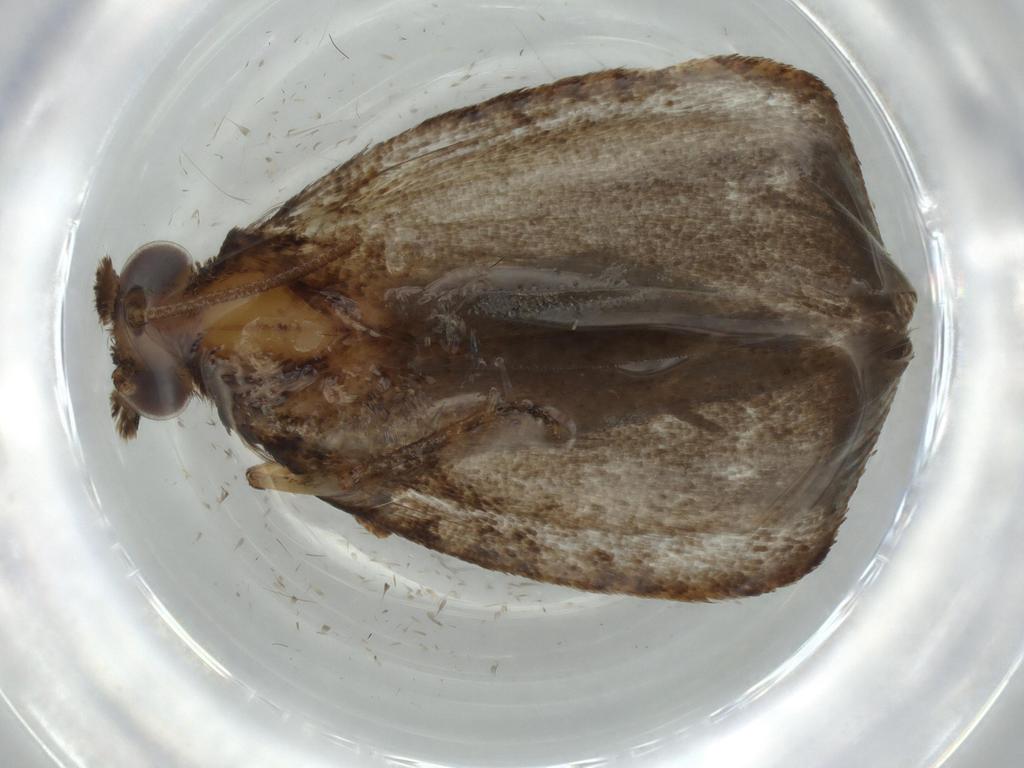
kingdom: Animalia
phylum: Arthropoda
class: Insecta
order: Diptera
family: Tabanidae
